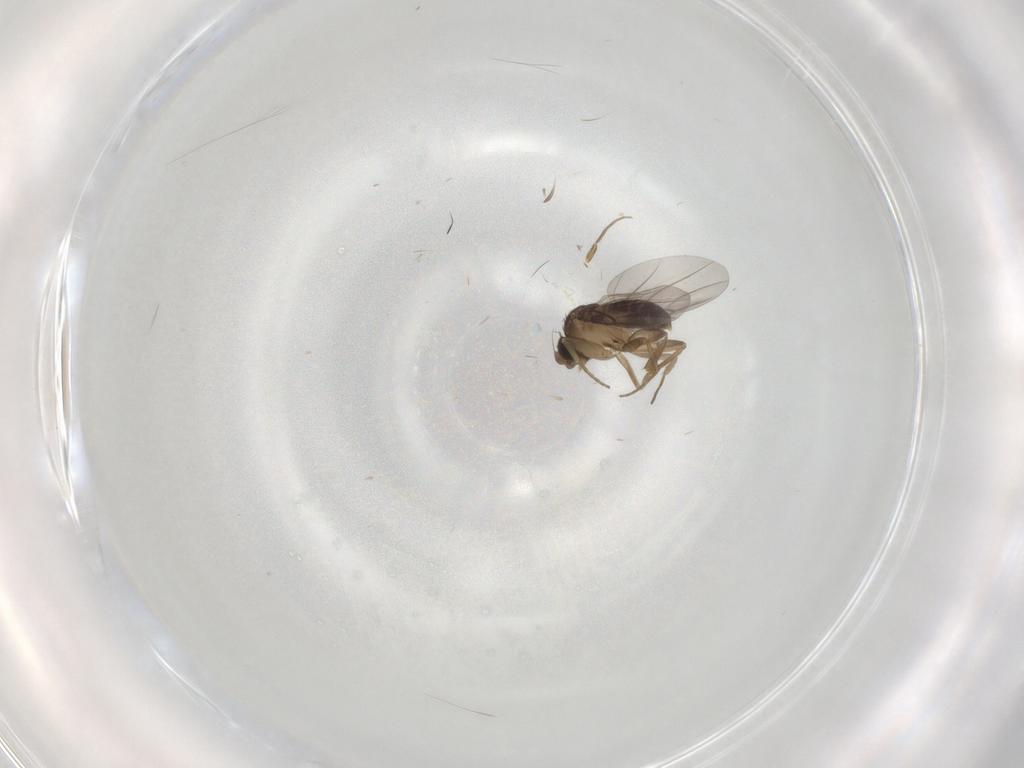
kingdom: Animalia
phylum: Arthropoda
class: Insecta
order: Diptera
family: Phoridae
